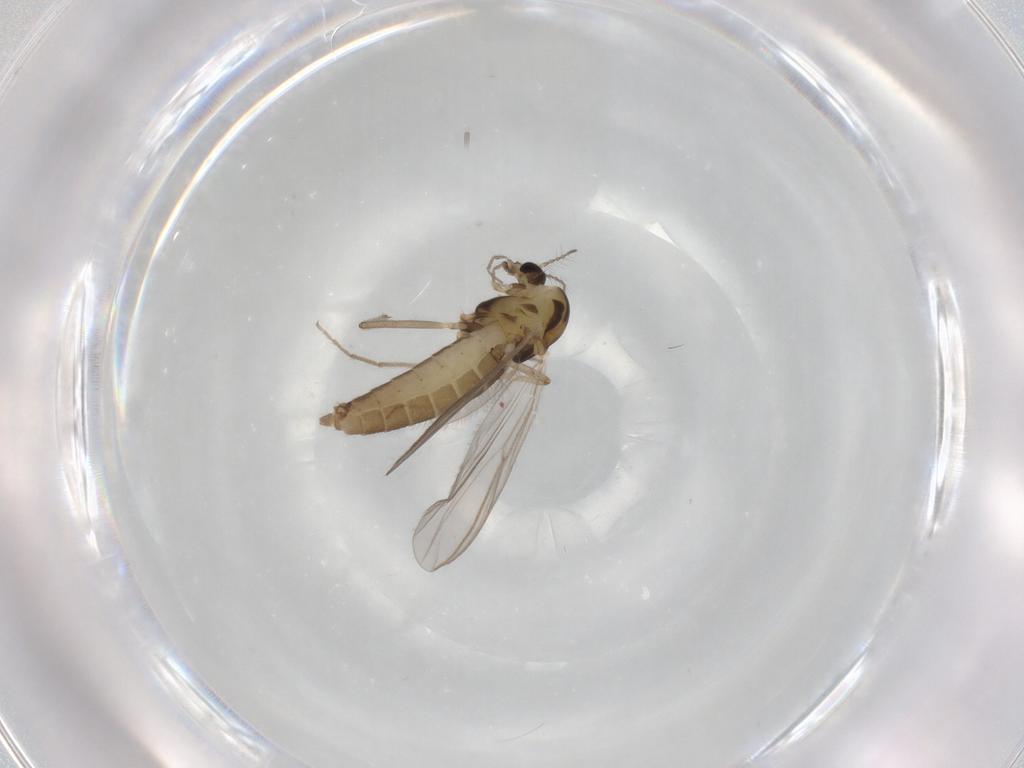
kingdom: Animalia
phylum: Arthropoda
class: Insecta
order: Diptera
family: Chironomidae
